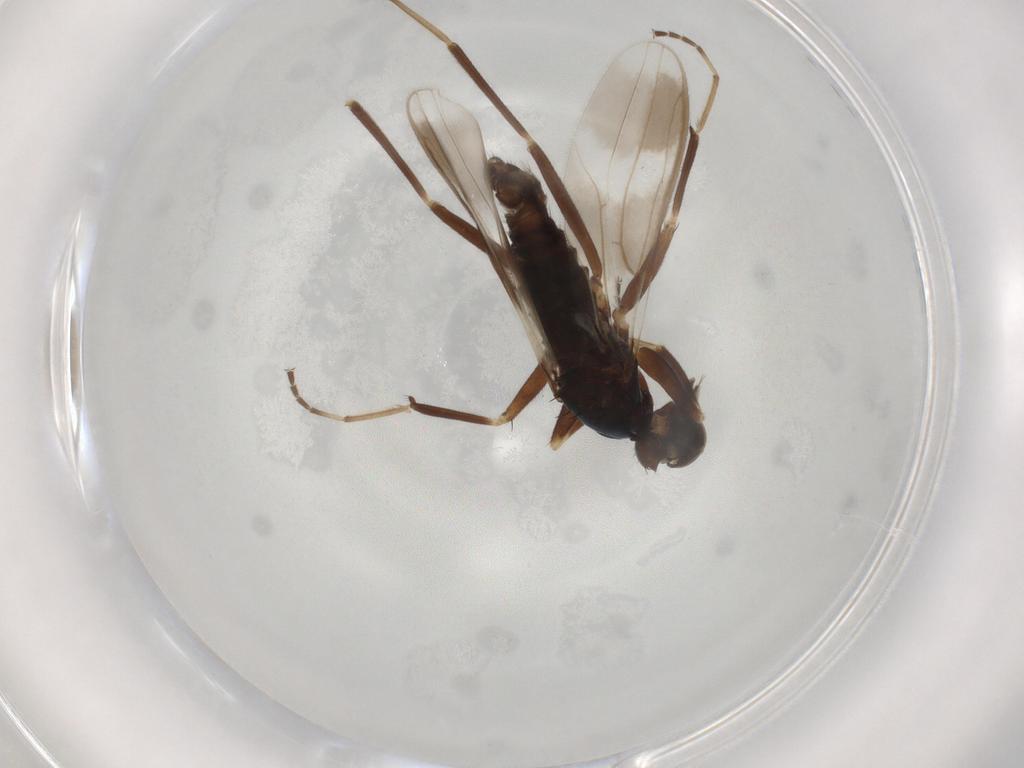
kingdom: Animalia
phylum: Arthropoda
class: Insecta
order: Diptera
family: Hybotidae
